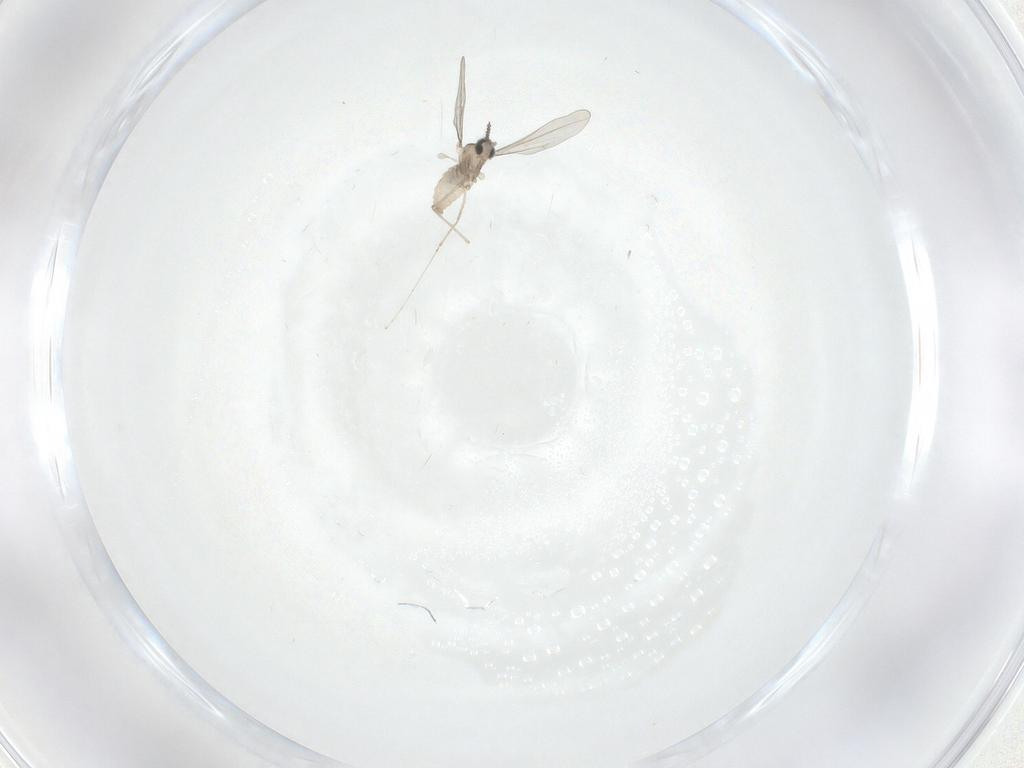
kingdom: Animalia
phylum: Arthropoda
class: Insecta
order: Diptera
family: Cecidomyiidae
